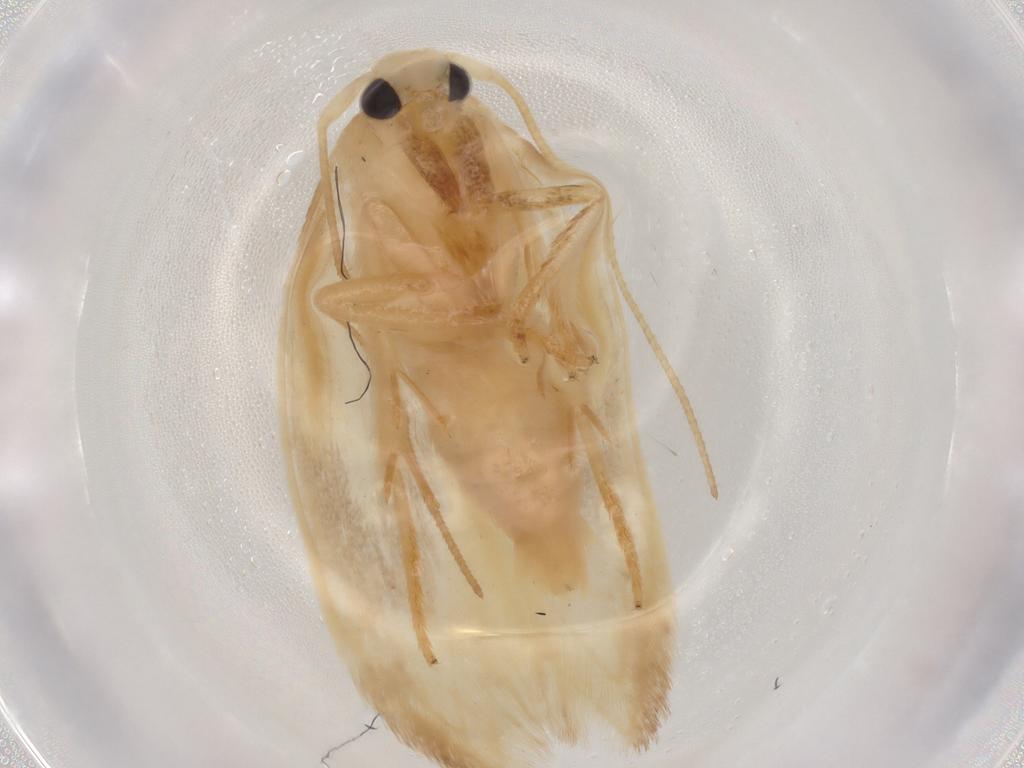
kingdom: Animalia
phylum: Arthropoda
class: Insecta
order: Lepidoptera
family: Geometridae
